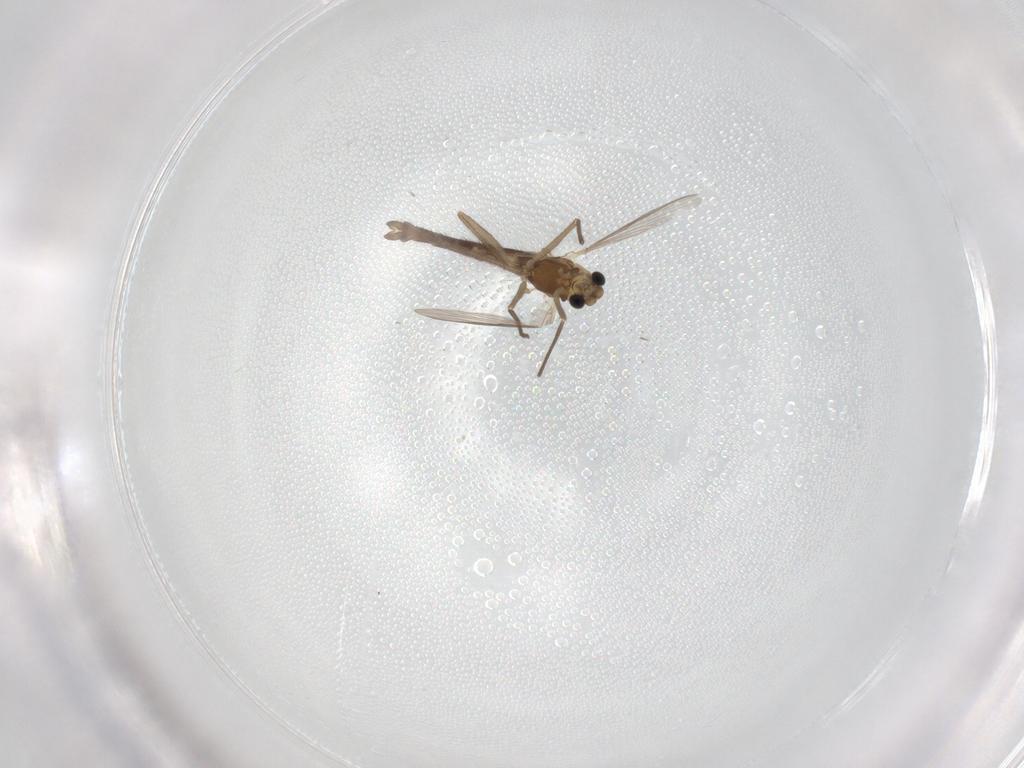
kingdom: Animalia
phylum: Arthropoda
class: Insecta
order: Diptera
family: Chironomidae
